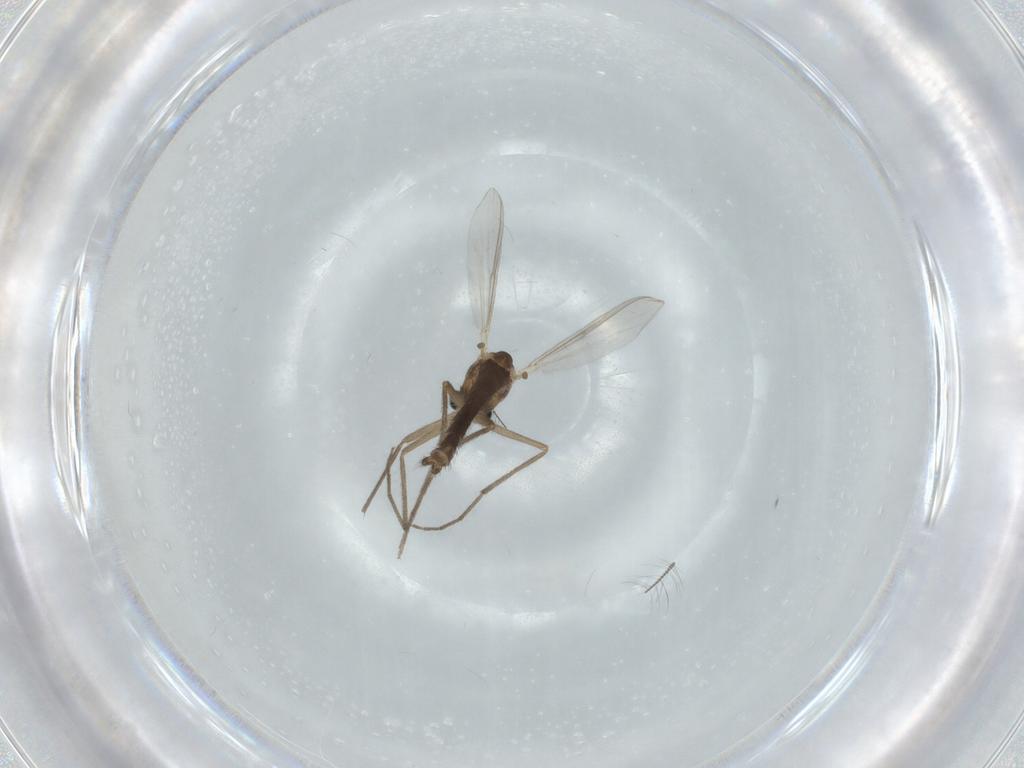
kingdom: Animalia
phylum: Arthropoda
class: Insecta
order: Diptera
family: Chironomidae
